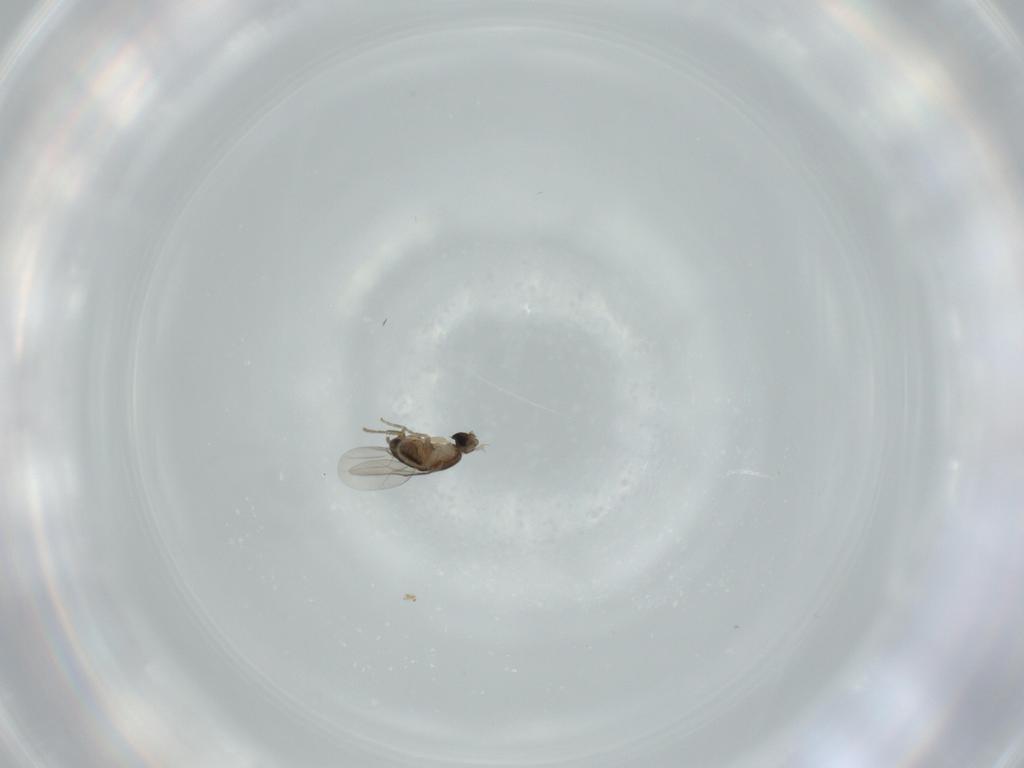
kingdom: Animalia
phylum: Arthropoda
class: Insecta
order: Diptera
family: Phoridae
